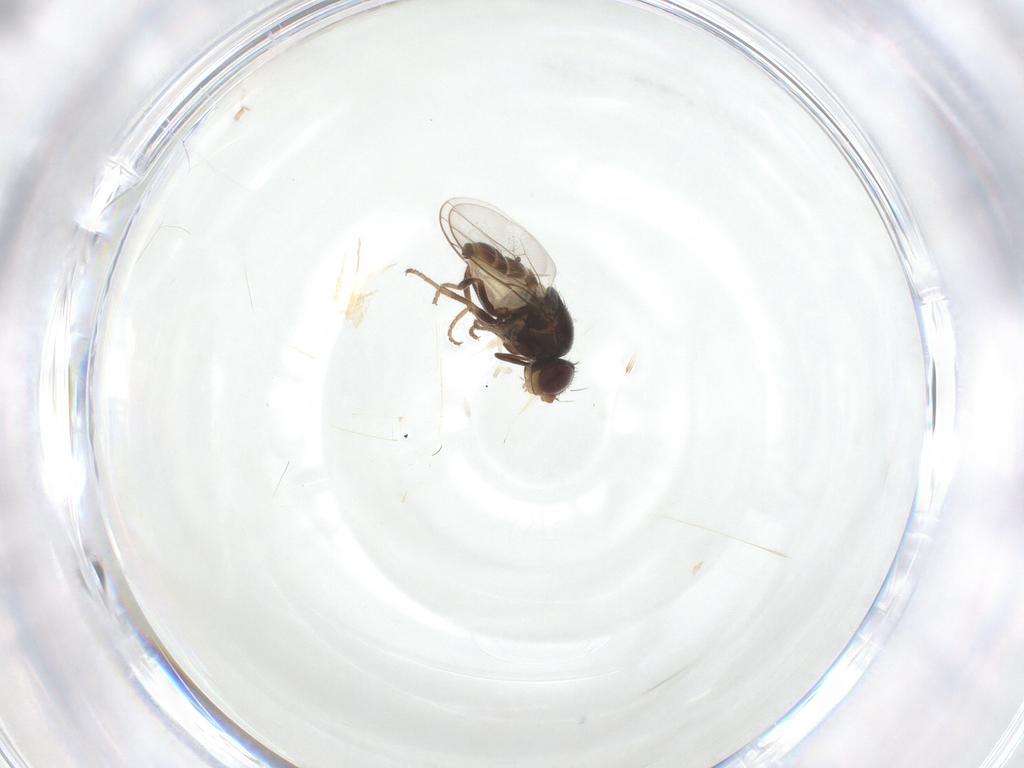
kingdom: Animalia
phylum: Arthropoda
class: Insecta
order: Diptera
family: Chloropidae
